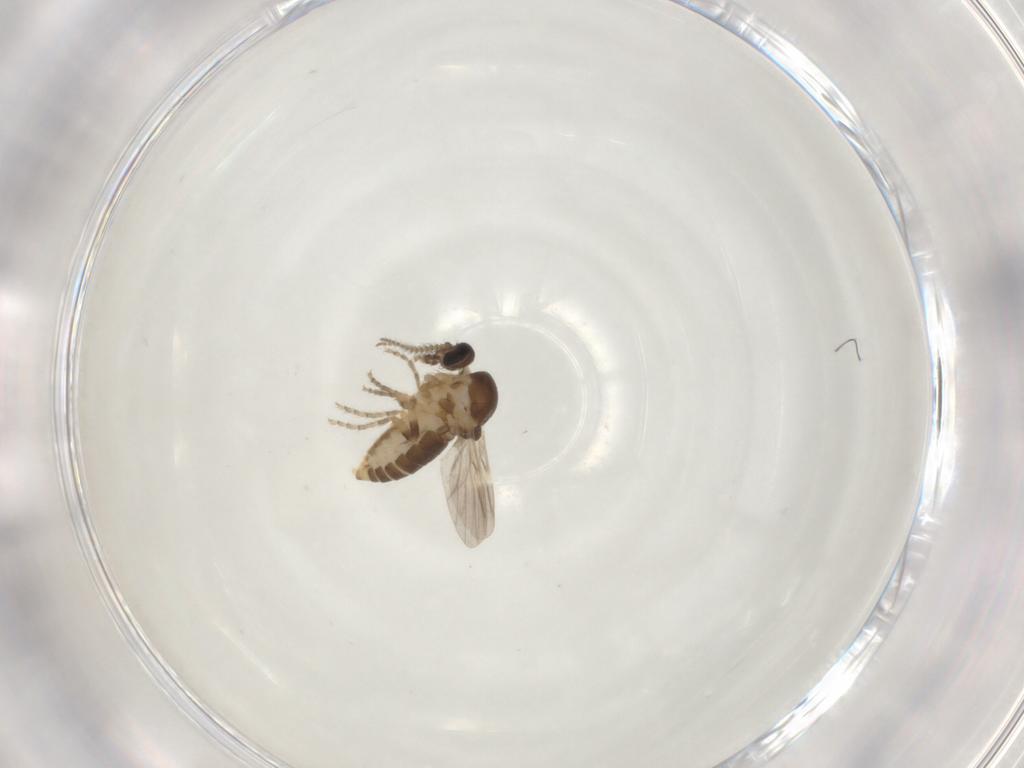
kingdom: Animalia
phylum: Arthropoda
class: Insecta
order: Diptera
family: Ceratopogonidae
